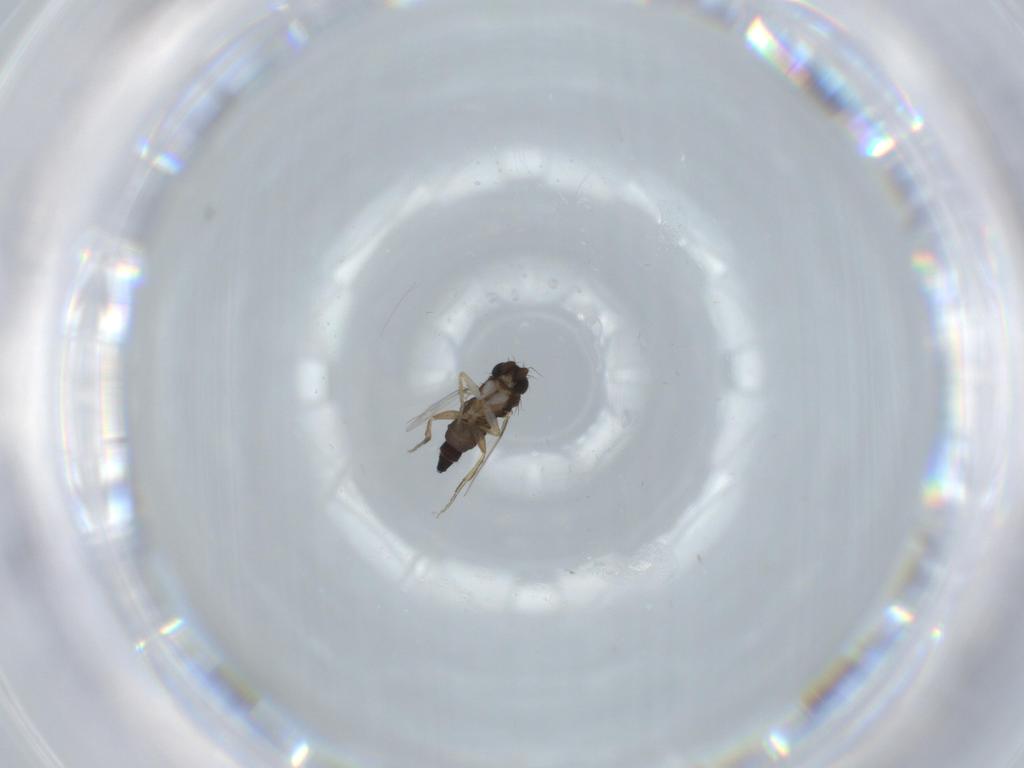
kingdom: Animalia
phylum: Arthropoda
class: Insecta
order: Diptera
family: Phoridae
